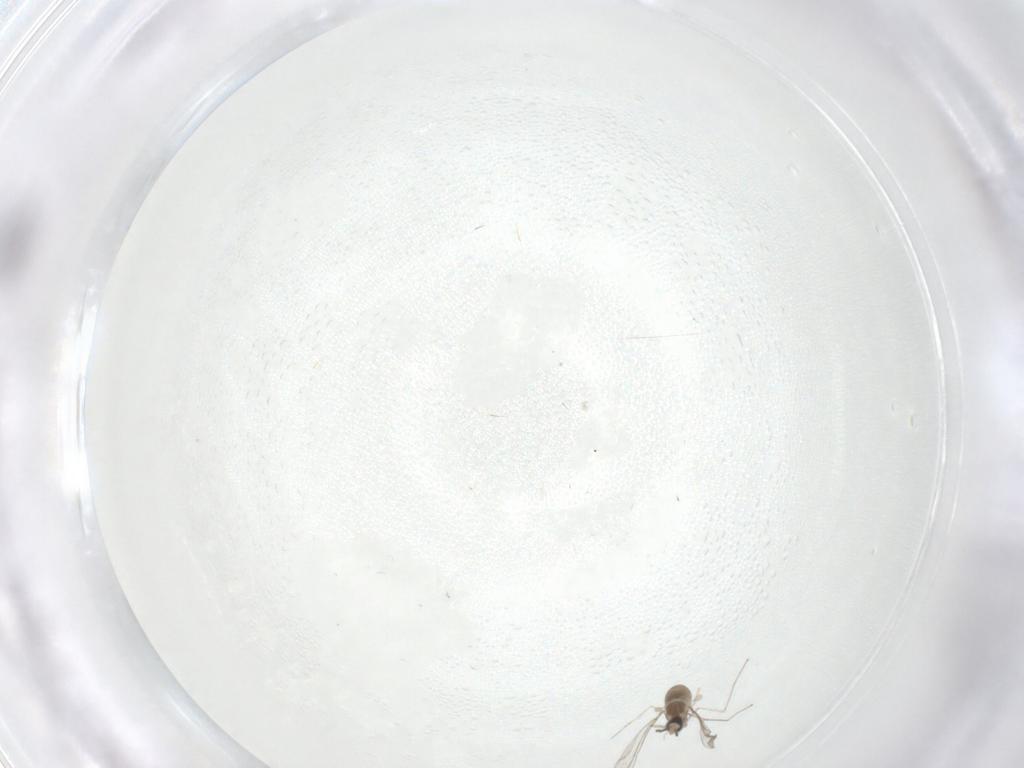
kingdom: Animalia
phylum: Arthropoda
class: Insecta
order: Diptera
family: Cecidomyiidae
